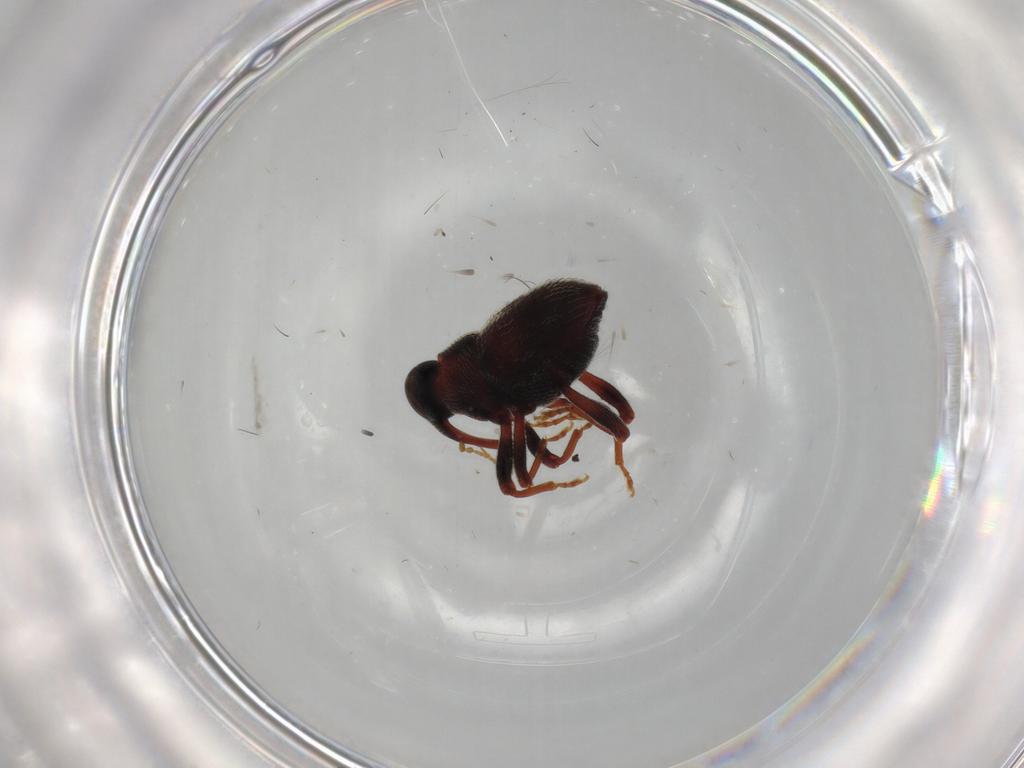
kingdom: Animalia
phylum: Arthropoda
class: Insecta
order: Coleoptera
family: Curculionidae
